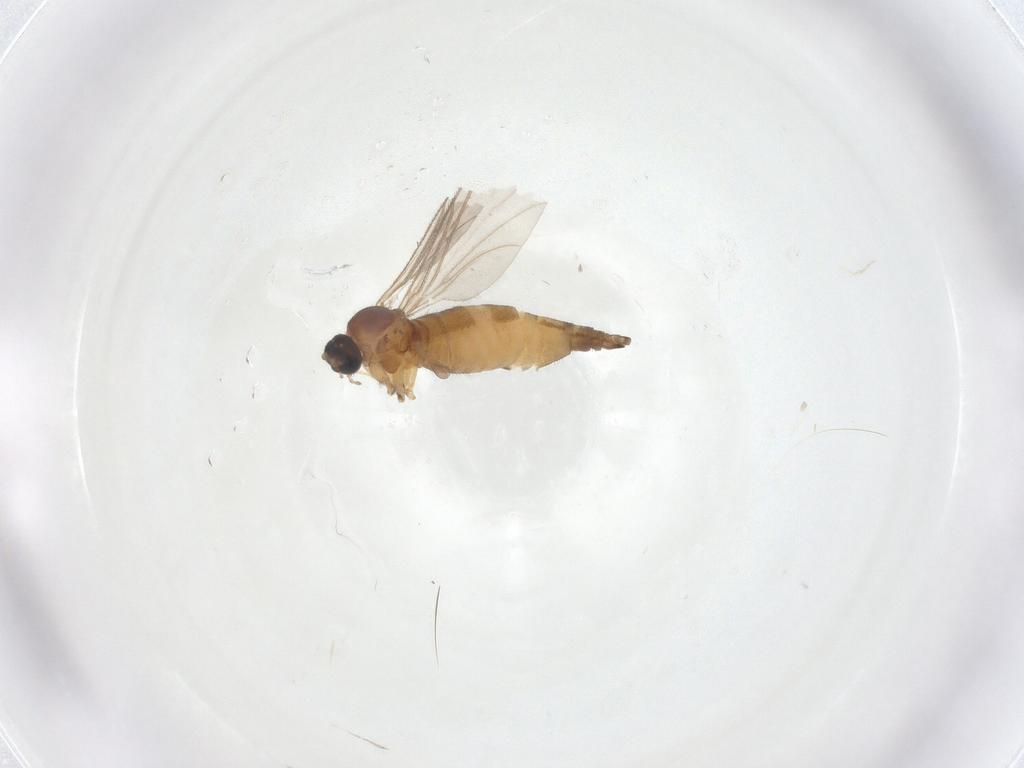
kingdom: Animalia
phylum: Arthropoda
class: Insecta
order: Diptera
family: Sciaridae
